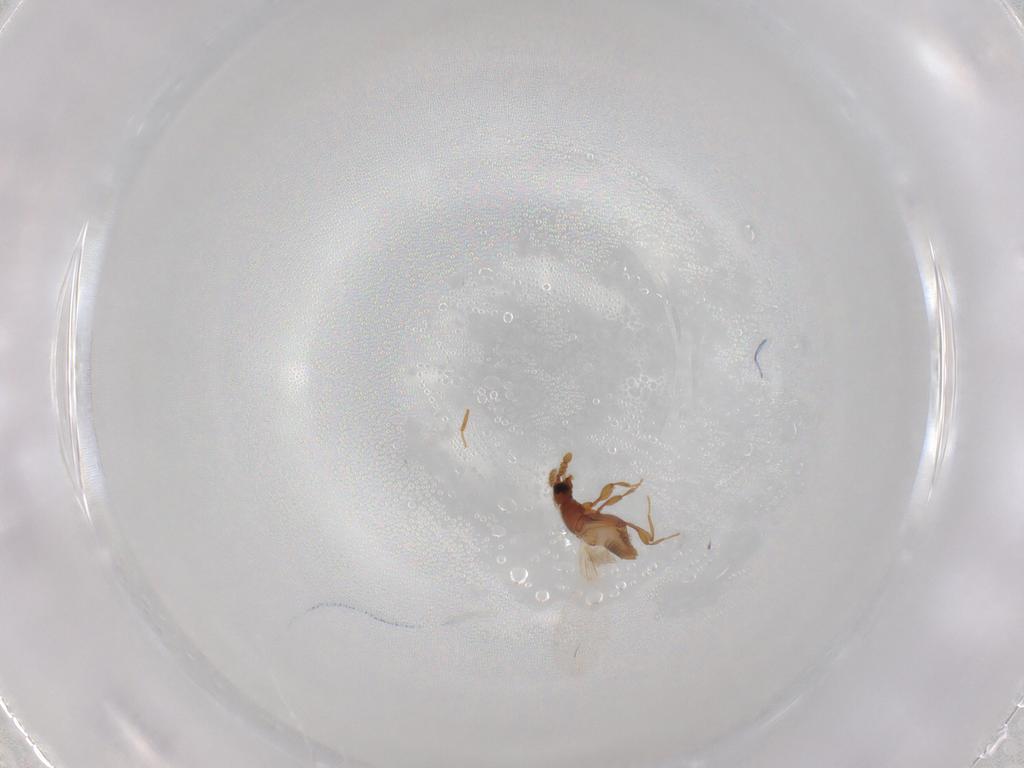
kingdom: Animalia
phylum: Arthropoda
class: Insecta
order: Coleoptera
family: Staphylinidae
